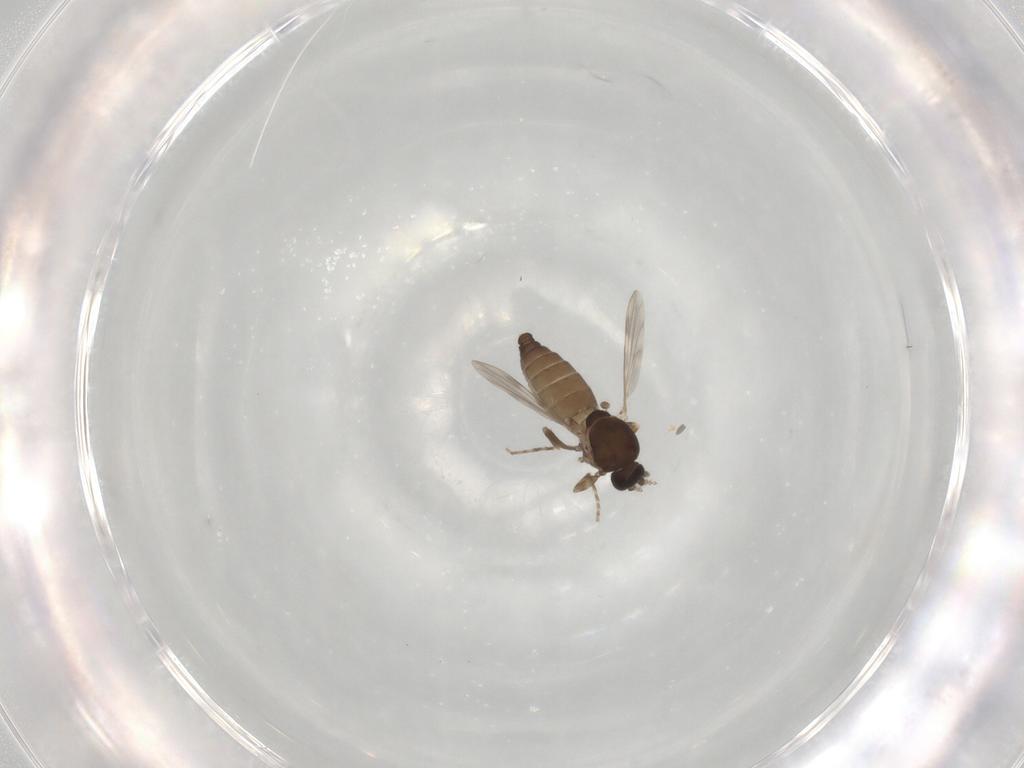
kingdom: Animalia
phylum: Arthropoda
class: Insecta
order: Diptera
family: Ceratopogonidae
